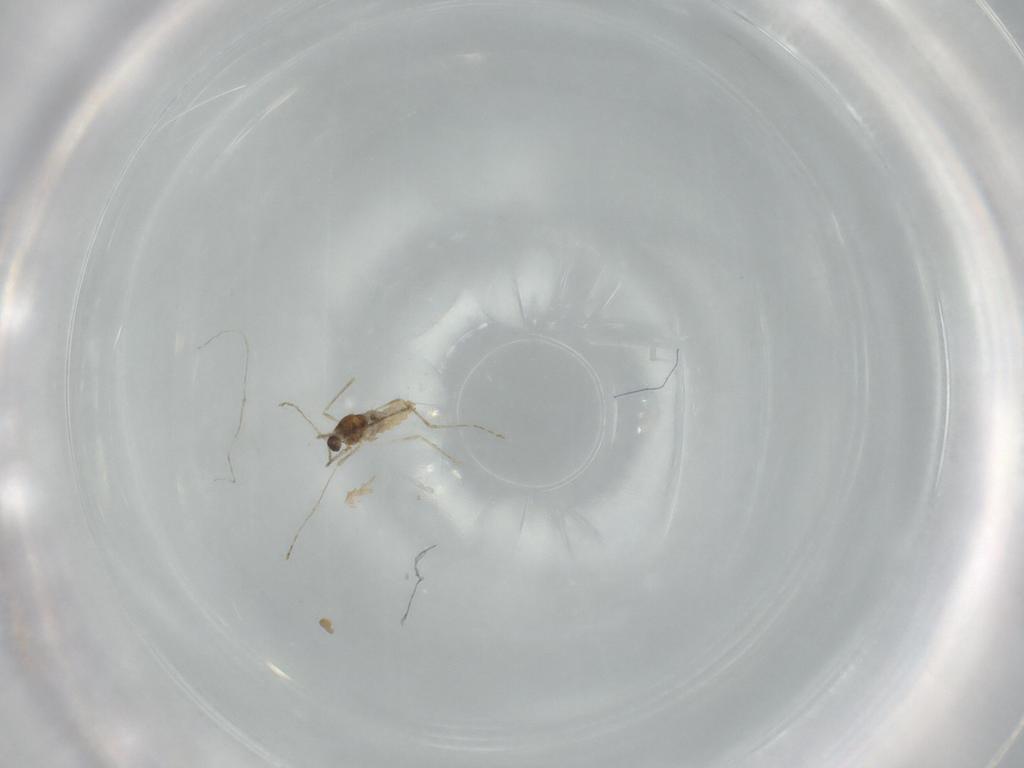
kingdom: Animalia
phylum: Arthropoda
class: Insecta
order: Diptera
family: Cecidomyiidae
